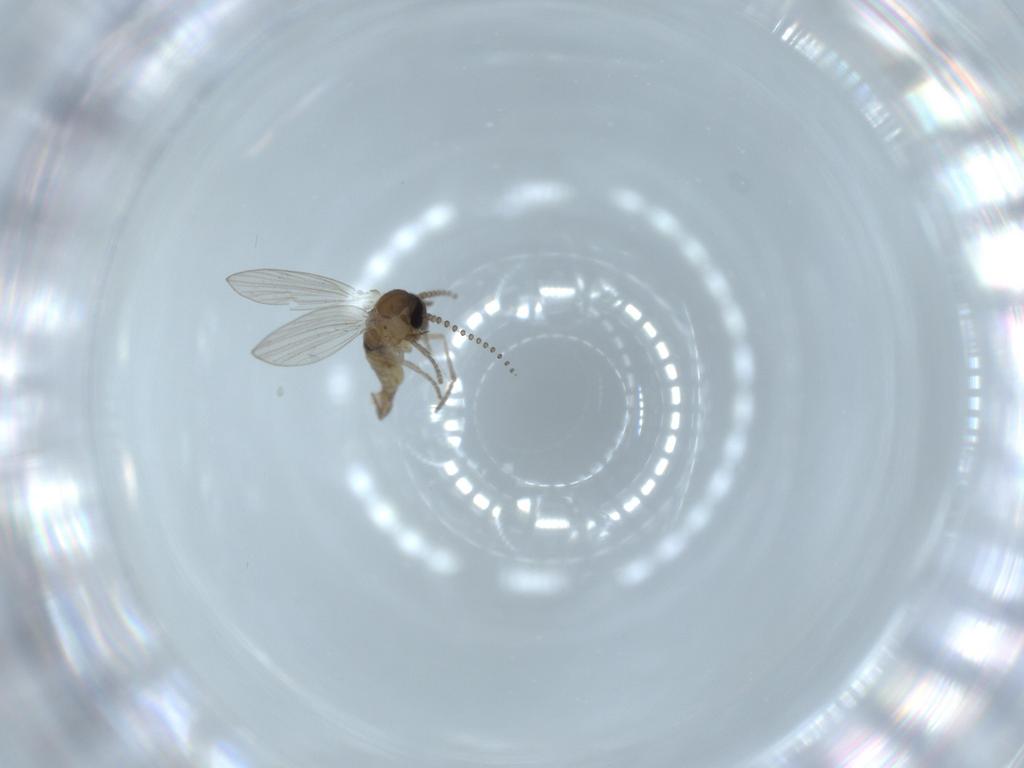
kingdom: Animalia
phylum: Arthropoda
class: Insecta
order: Diptera
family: Psychodidae
